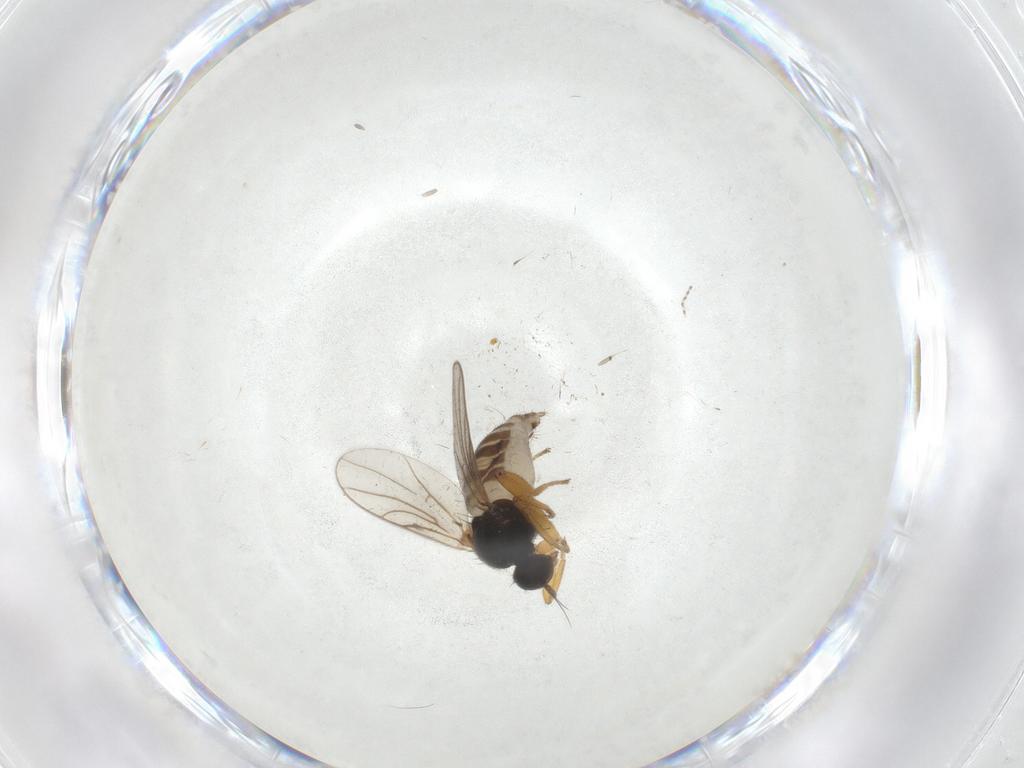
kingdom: Animalia
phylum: Arthropoda
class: Insecta
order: Diptera
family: Hybotidae
